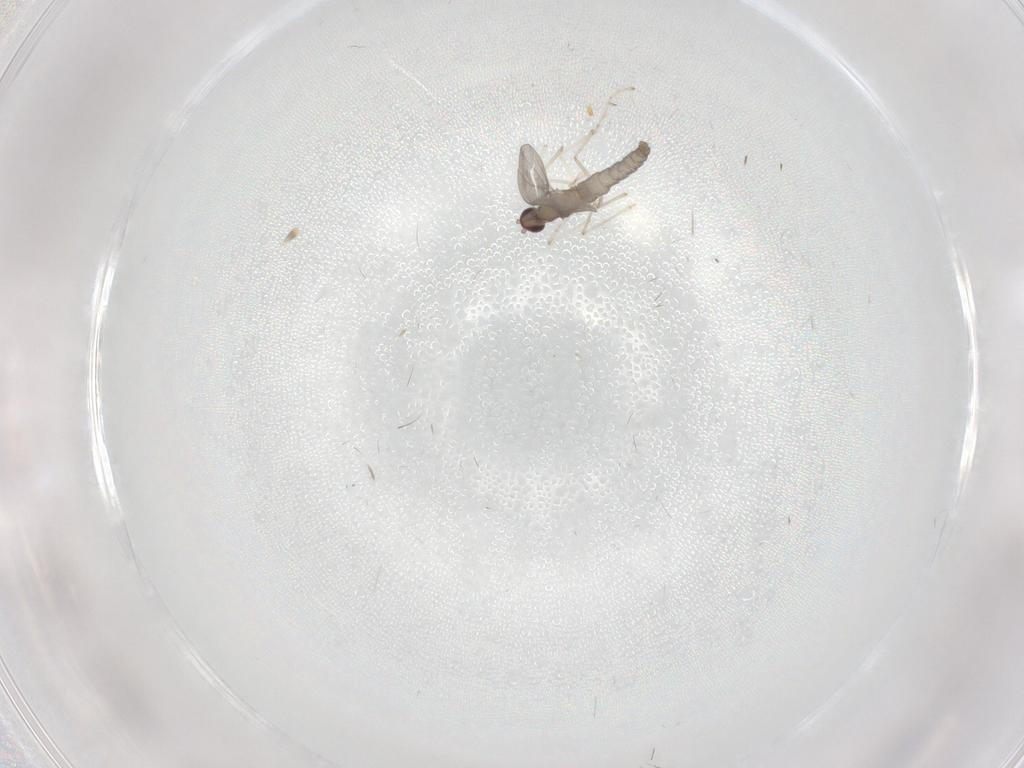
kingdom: Animalia
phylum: Arthropoda
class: Insecta
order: Diptera
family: Cecidomyiidae
